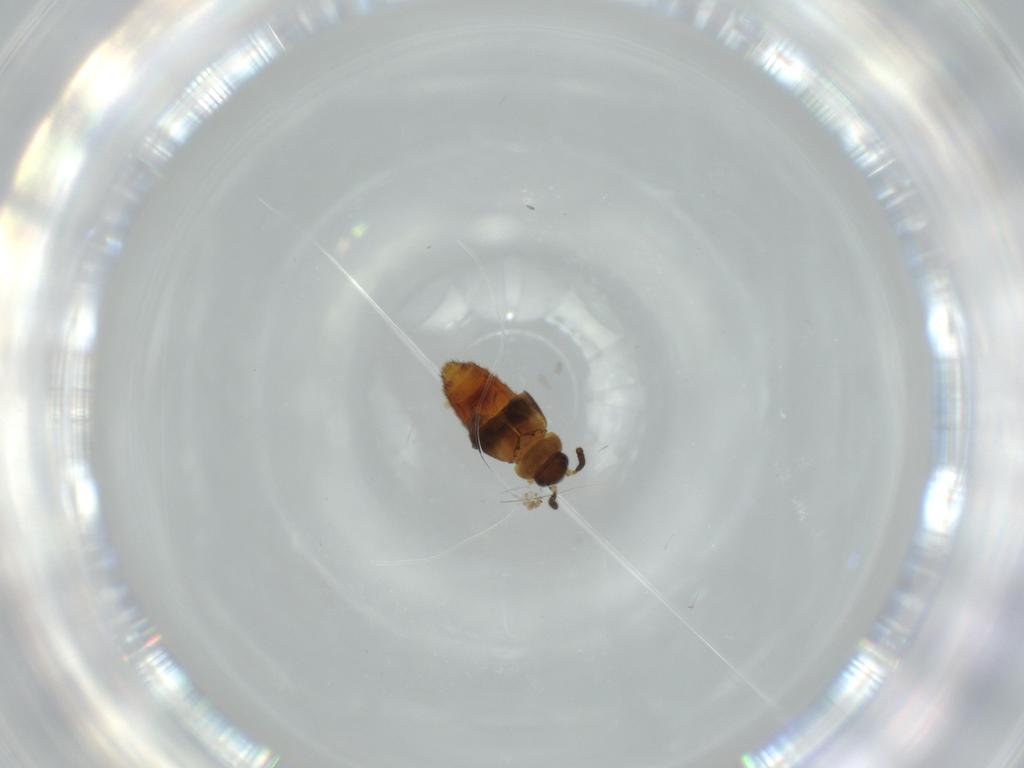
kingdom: Animalia
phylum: Arthropoda
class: Insecta
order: Coleoptera
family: Staphylinidae
